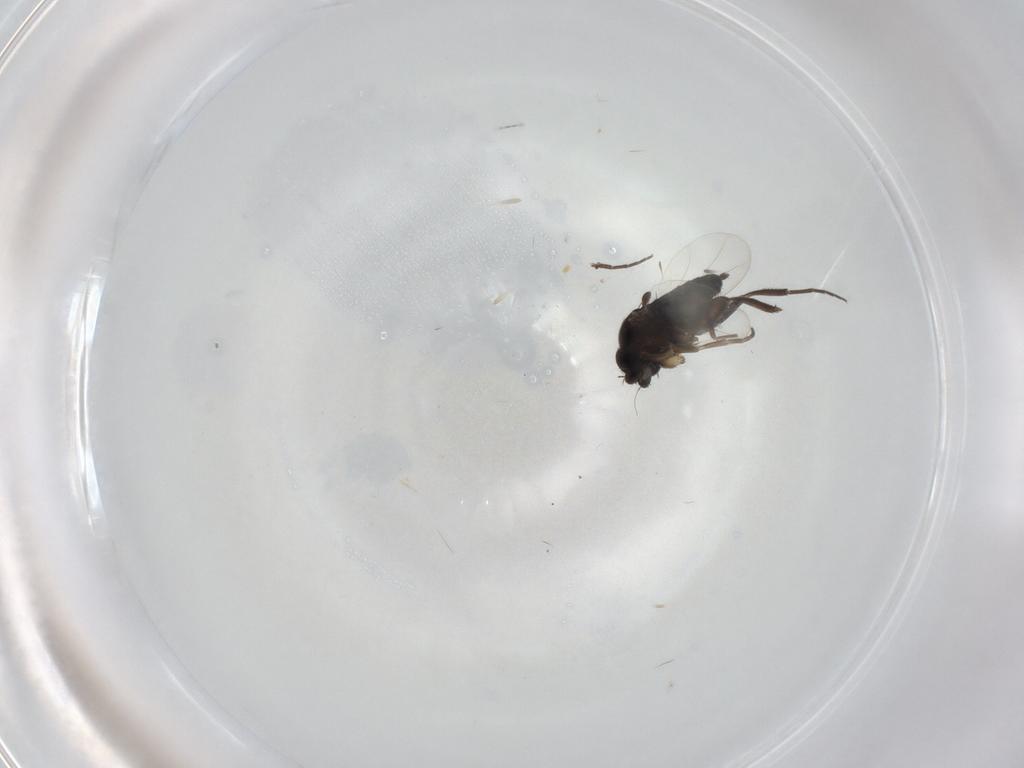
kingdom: Animalia
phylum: Arthropoda
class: Insecta
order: Diptera
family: Phoridae
